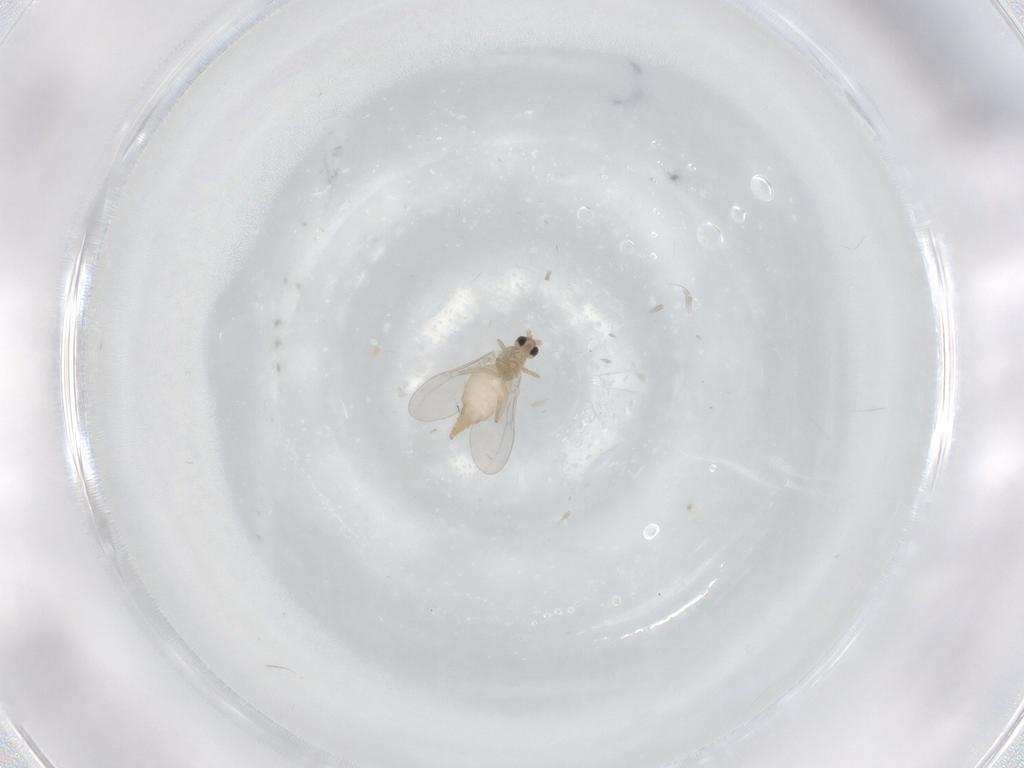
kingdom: Animalia
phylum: Arthropoda
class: Insecta
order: Diptera
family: Cecidomyiidae
